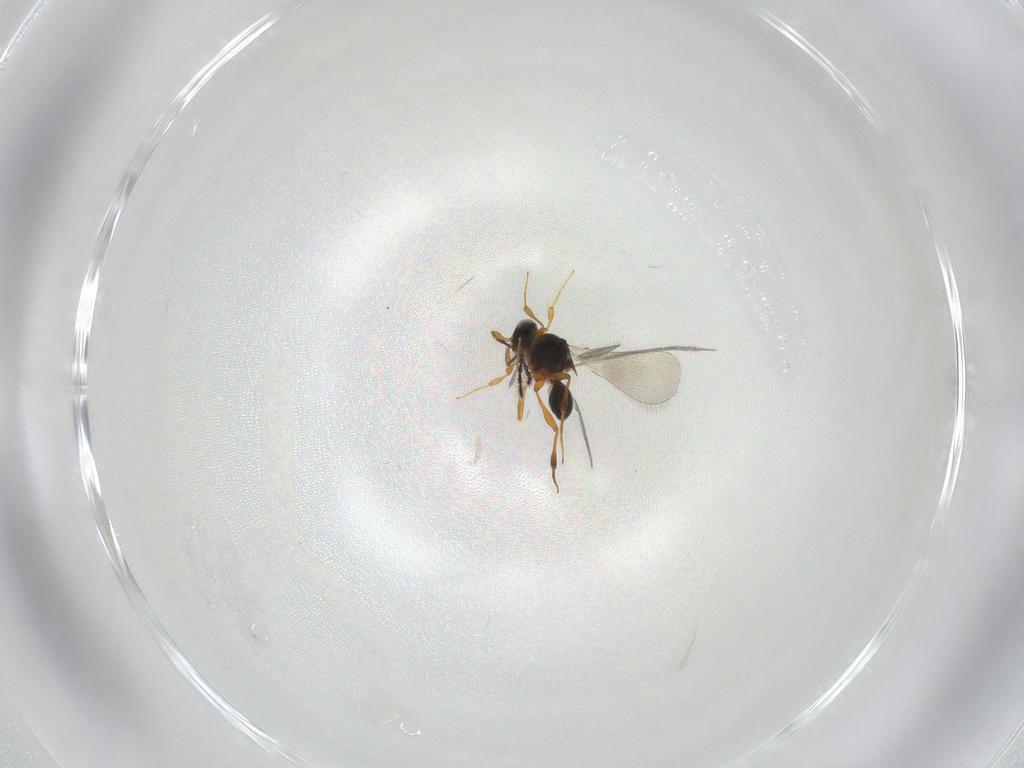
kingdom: Animalia
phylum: Arthropoda
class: Insecta
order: Hymenoptera
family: Platygastridae
